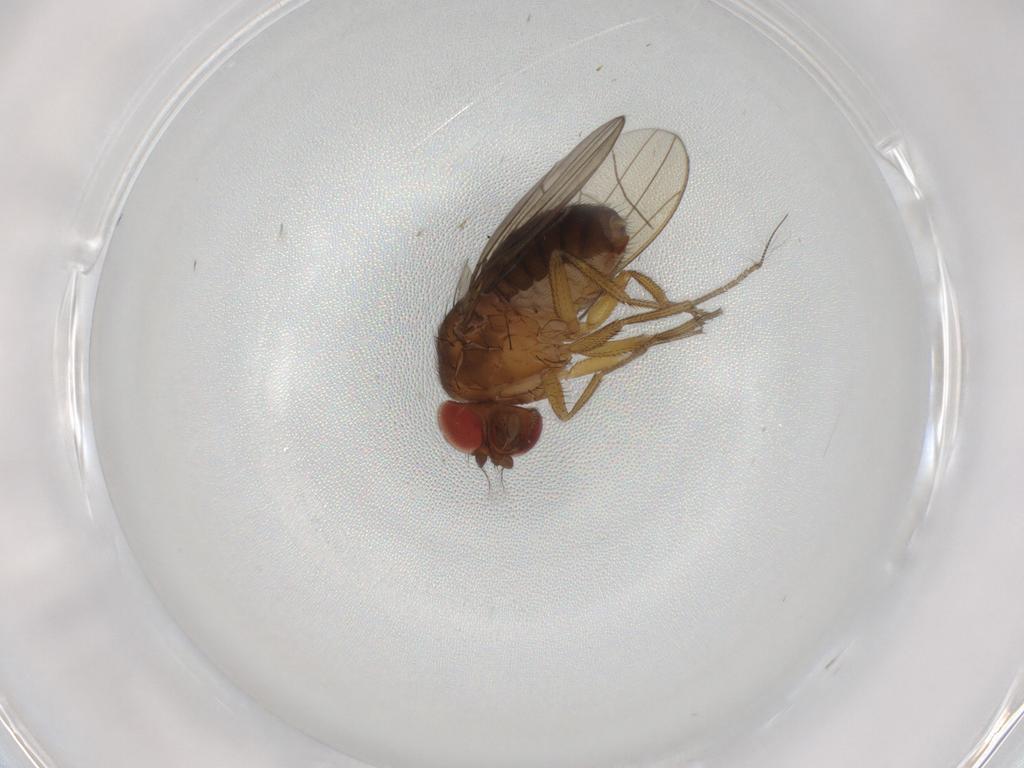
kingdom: Animalia
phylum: Arthropoda
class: Insecta
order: Diptera
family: Drosophilidae
